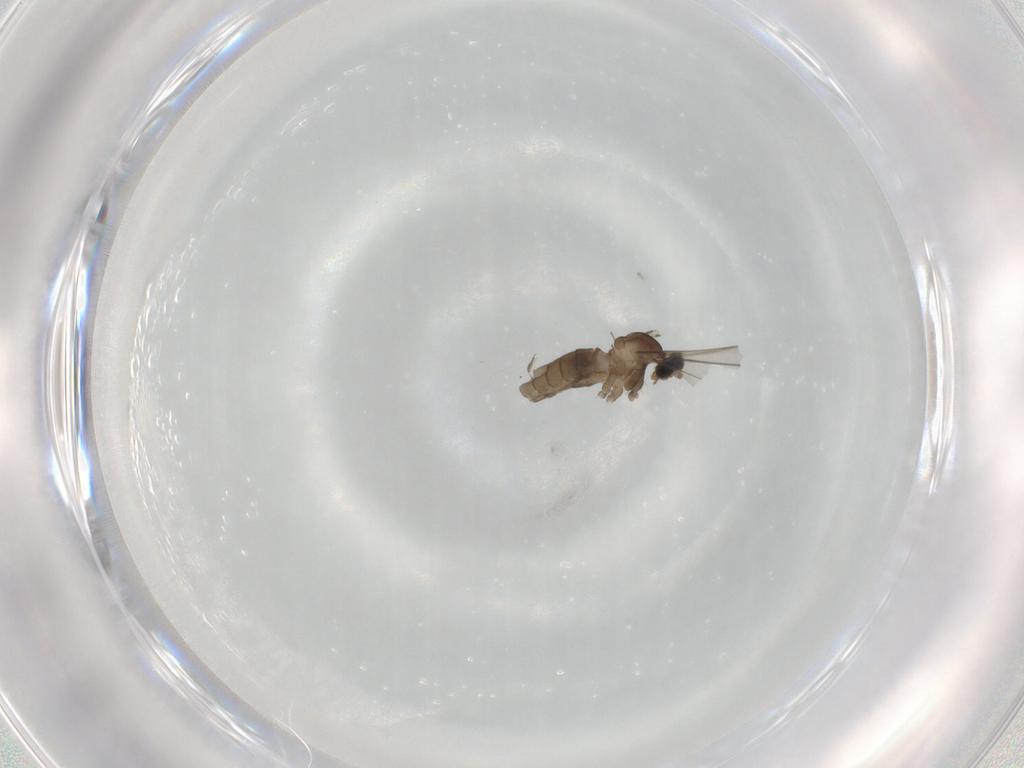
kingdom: Animalia
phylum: Arthropoda
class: Insecta
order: Diptera
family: Cecidomyiidae
